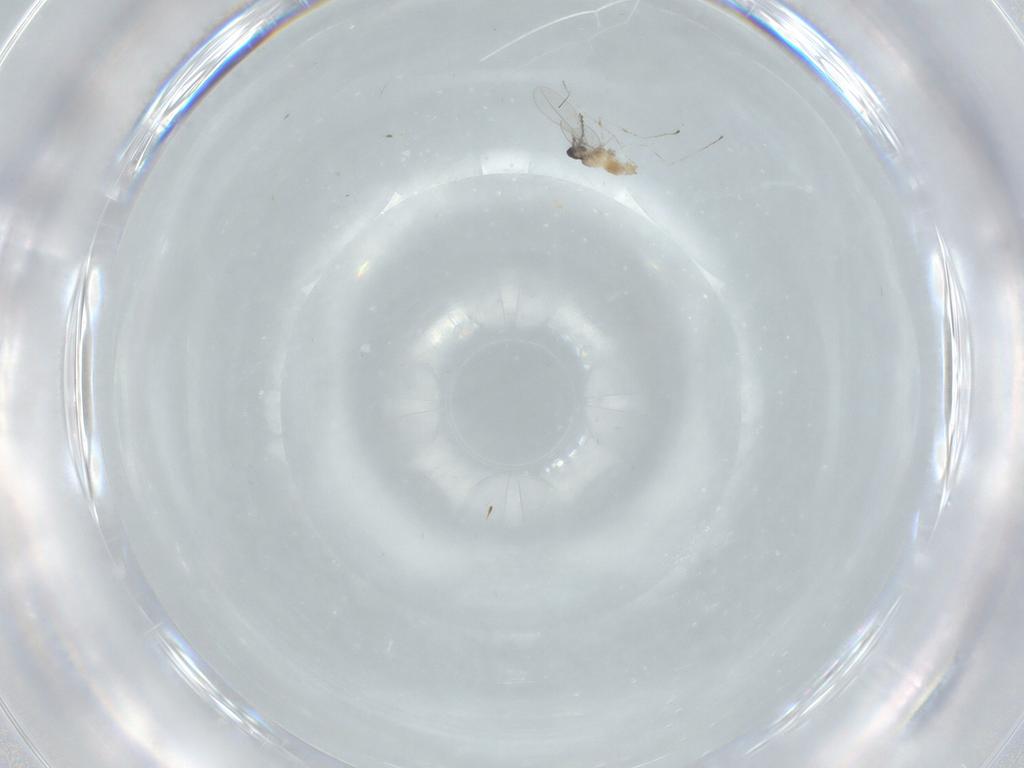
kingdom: Animalia
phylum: Arthropoda
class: Insecta
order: Diptera
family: Cecidomyiidae
